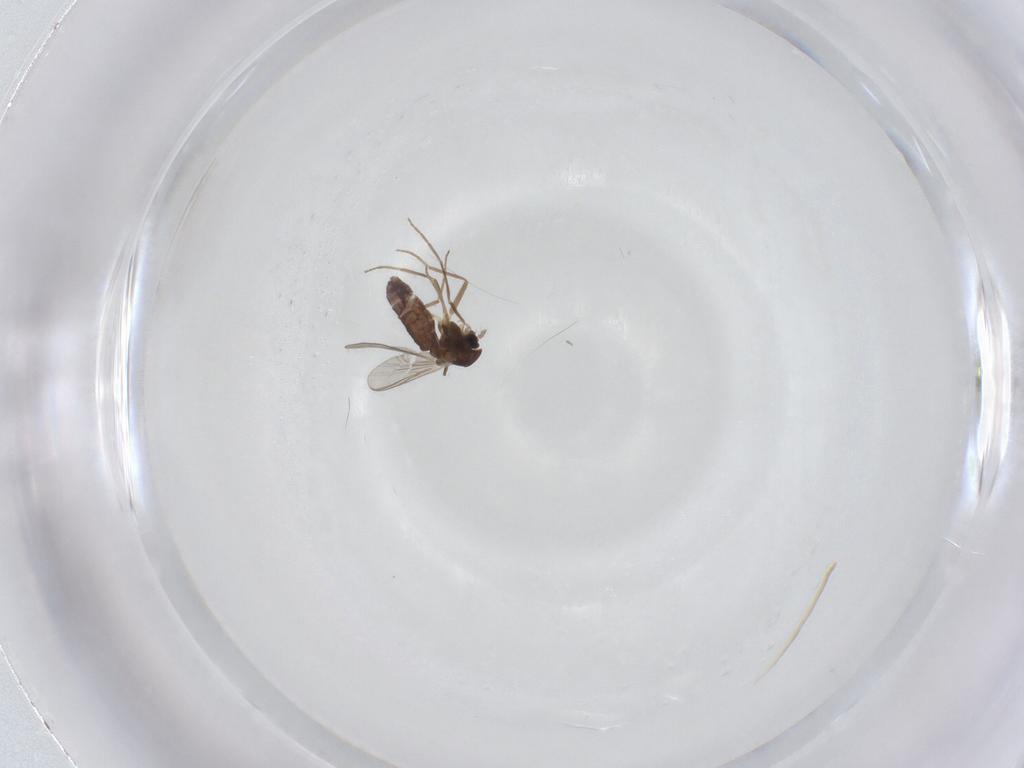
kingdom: Animalia
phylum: Arthropoda
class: Insecta
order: Diptera
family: Chironomidae
